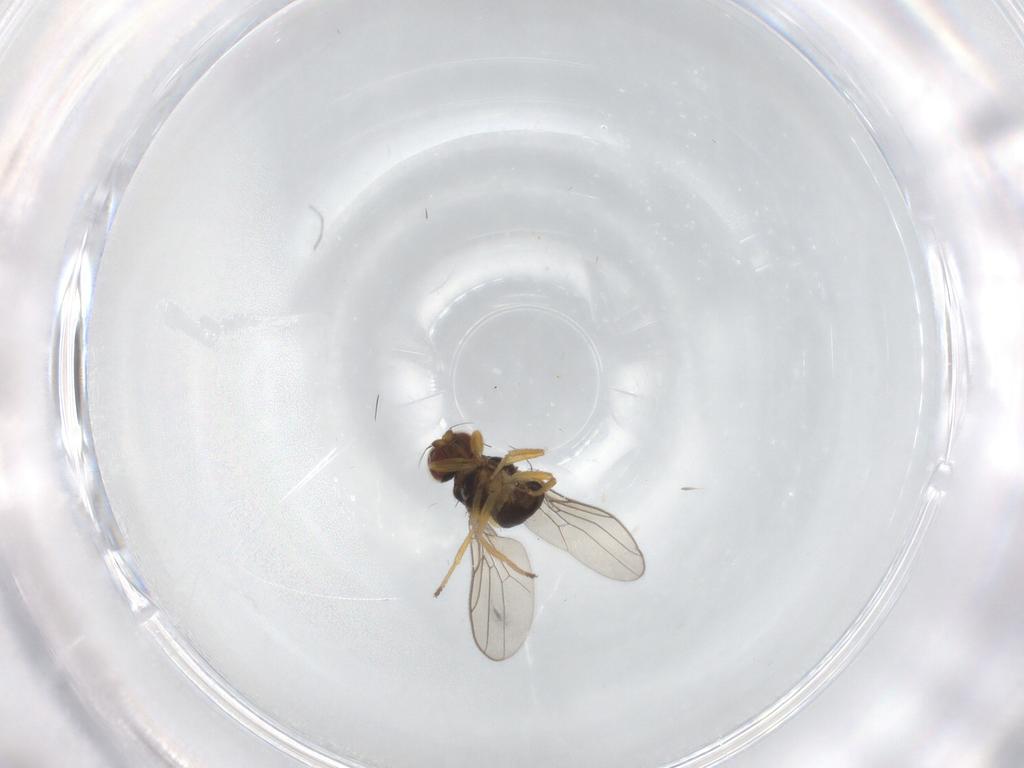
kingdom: Animalia
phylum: Arthropoda
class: Insecta
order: Diptera
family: Chloropidae
